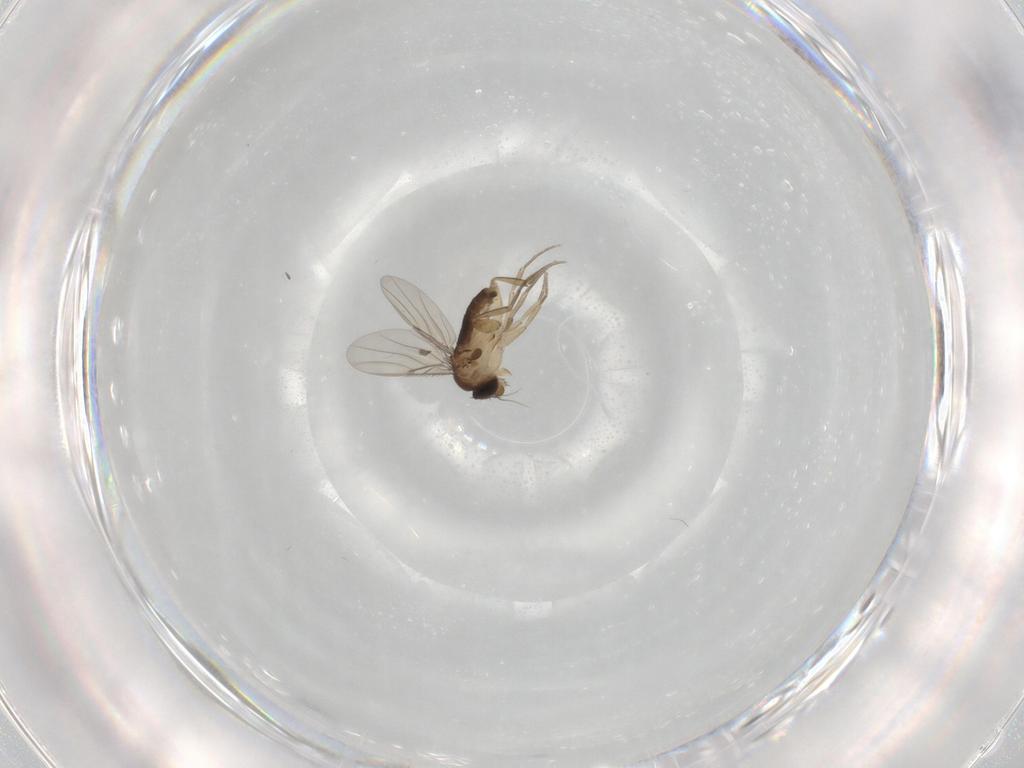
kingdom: Animalia
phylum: Arthropoda
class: Insecta
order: Diptera
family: Phoridae
